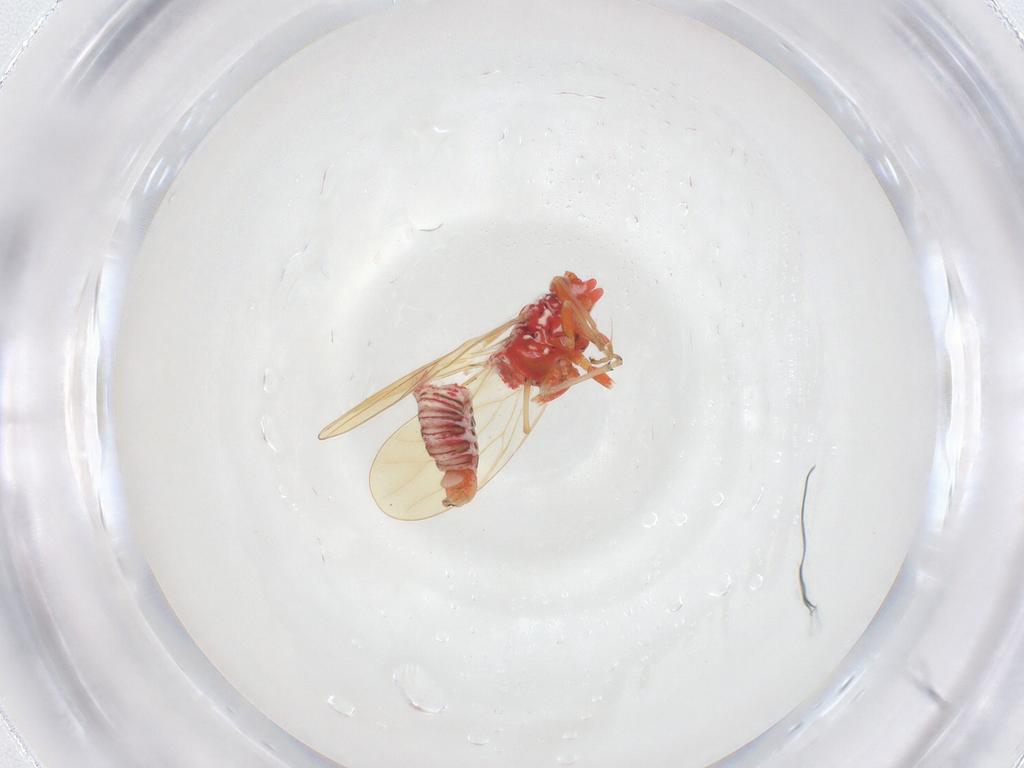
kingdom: Animalia
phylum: Arthropoda
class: Insecta
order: Hemiptera
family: Psyllidae
